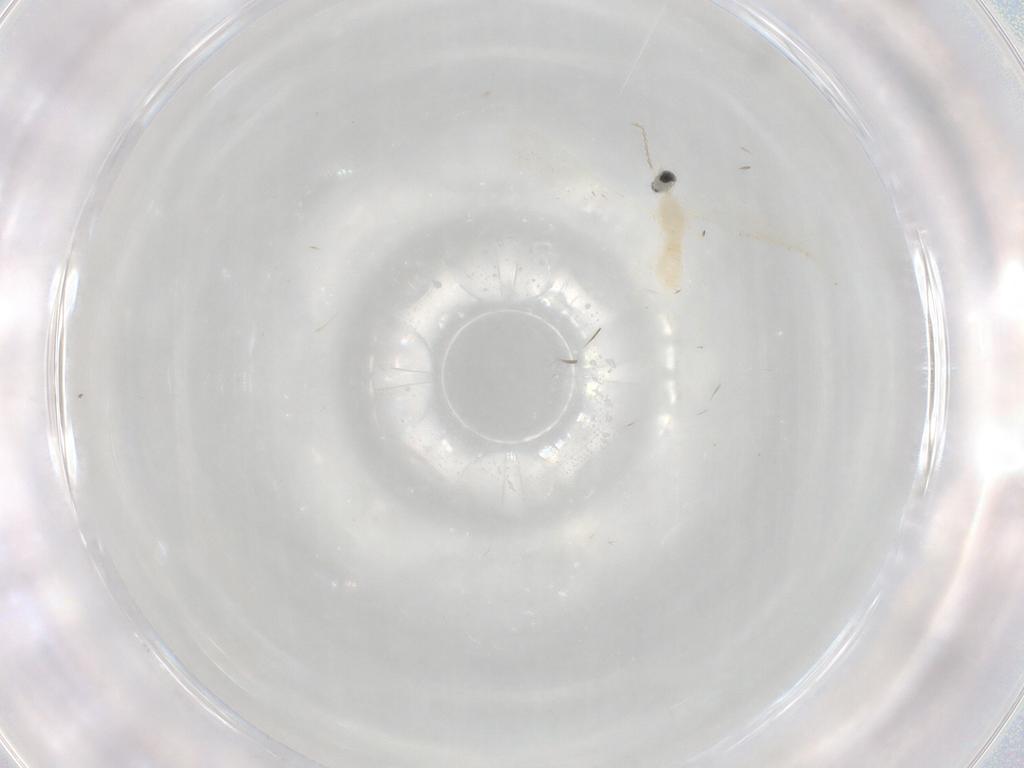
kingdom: Animalia
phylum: Arthropoda
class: Insecta
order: Diptera
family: Cecidomyiidae
